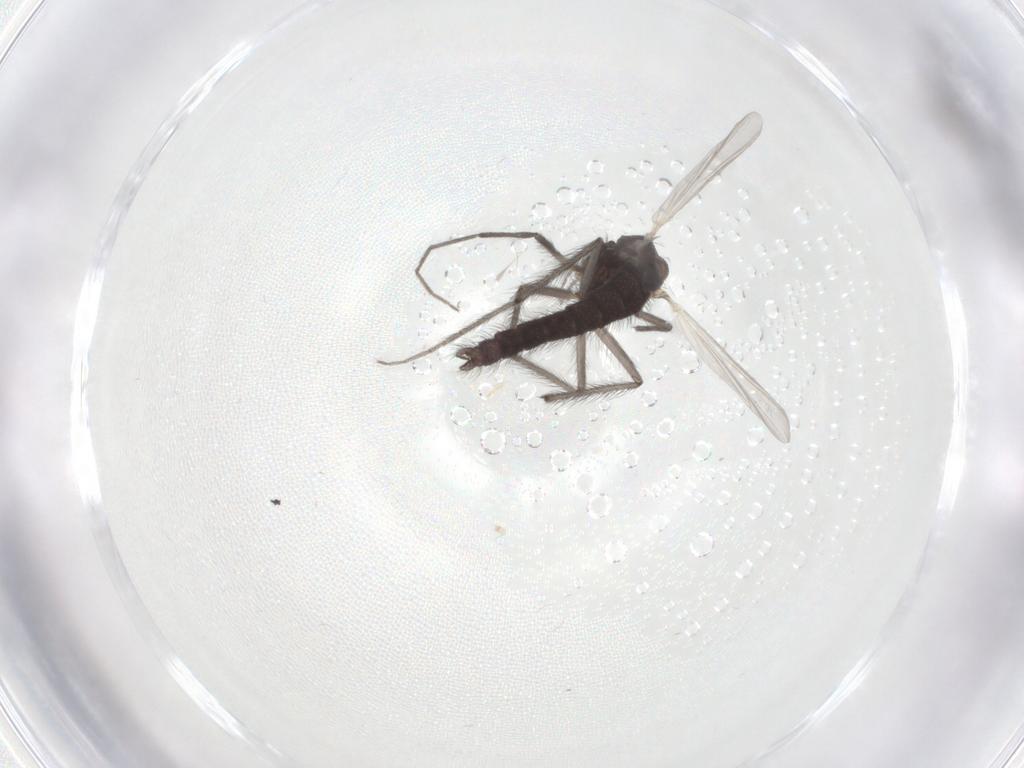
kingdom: Animalia
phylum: Arthropoda
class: Insecta
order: Diptera
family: Chironomidae
